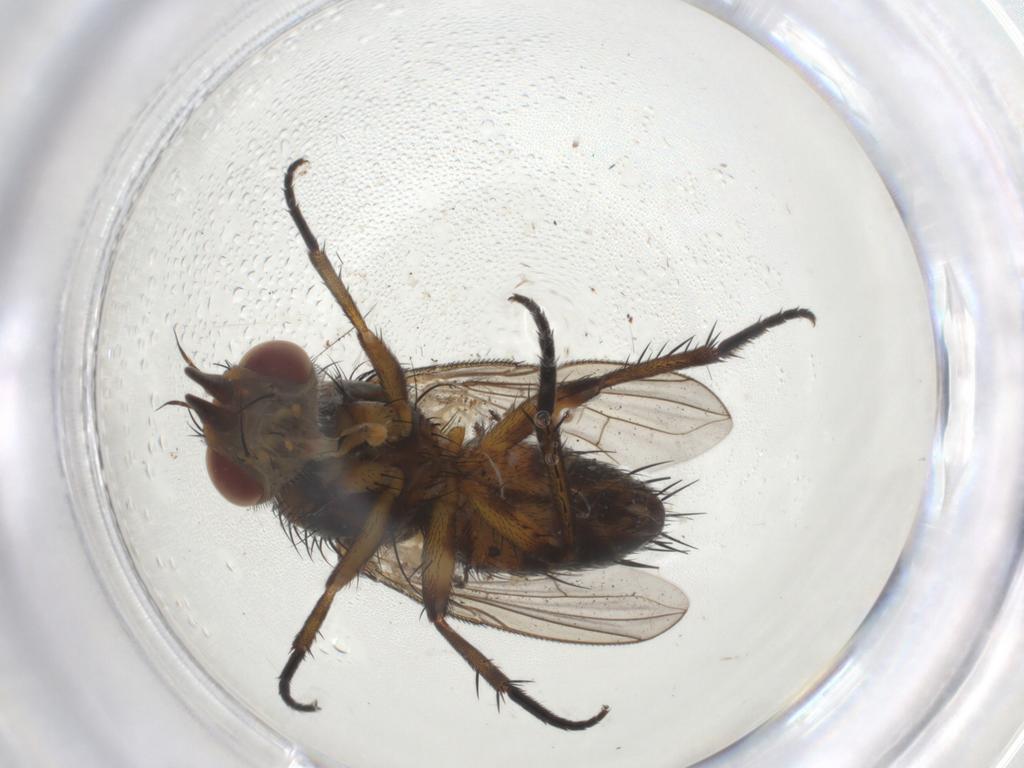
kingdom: Animalia
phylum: Arthropoda
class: Insecta
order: Diptera
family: Tachinidae
